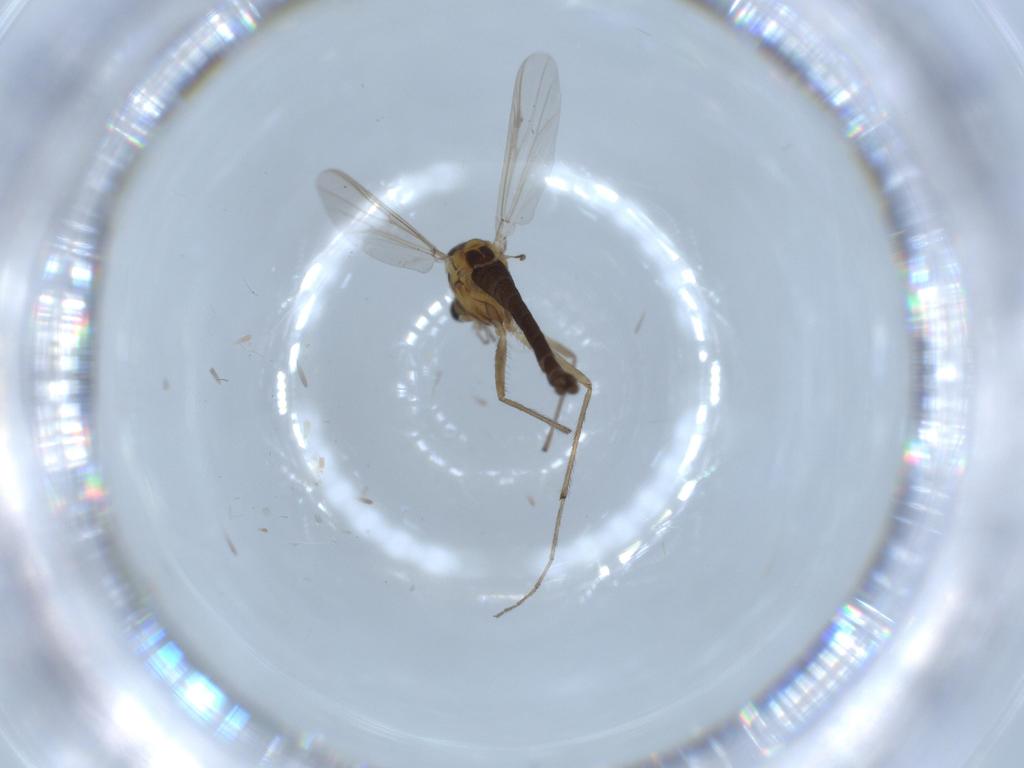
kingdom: Animalia
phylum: Arthropoda
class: Insecta
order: Diptera
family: Chironomidae
